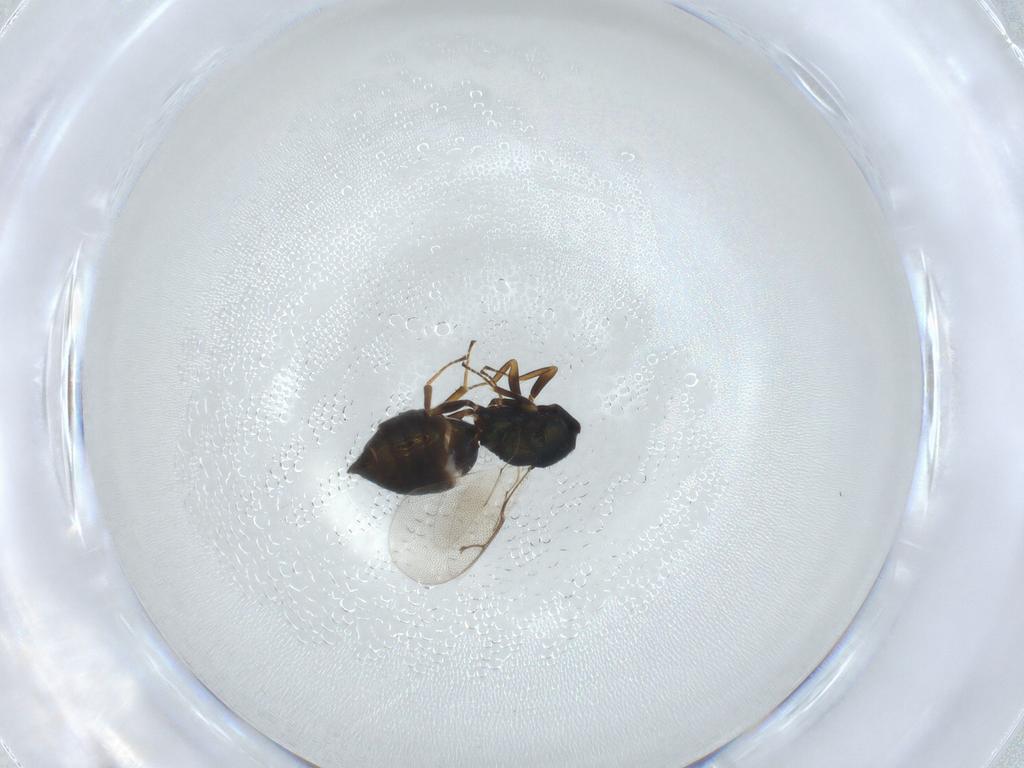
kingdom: Animalia
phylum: Arthropoda
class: Insecta
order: Hymenoptera
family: Pteromalidae
